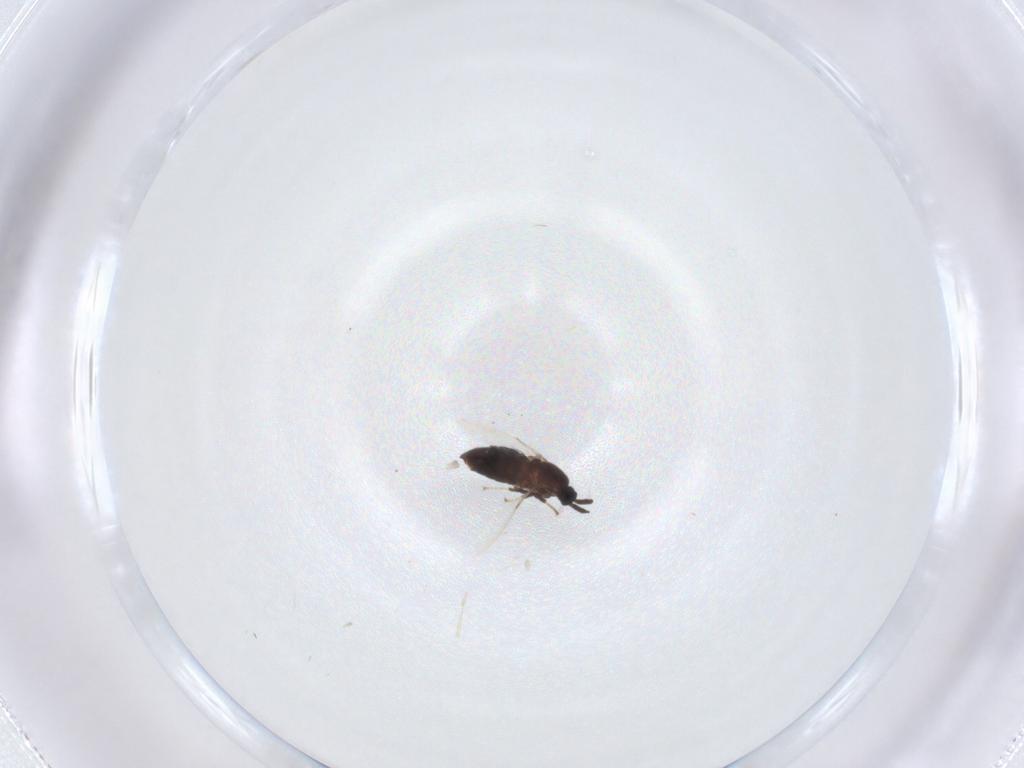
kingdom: Animalia
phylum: Arthropoda
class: Insecta
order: Diptera
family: Scatopsidae
